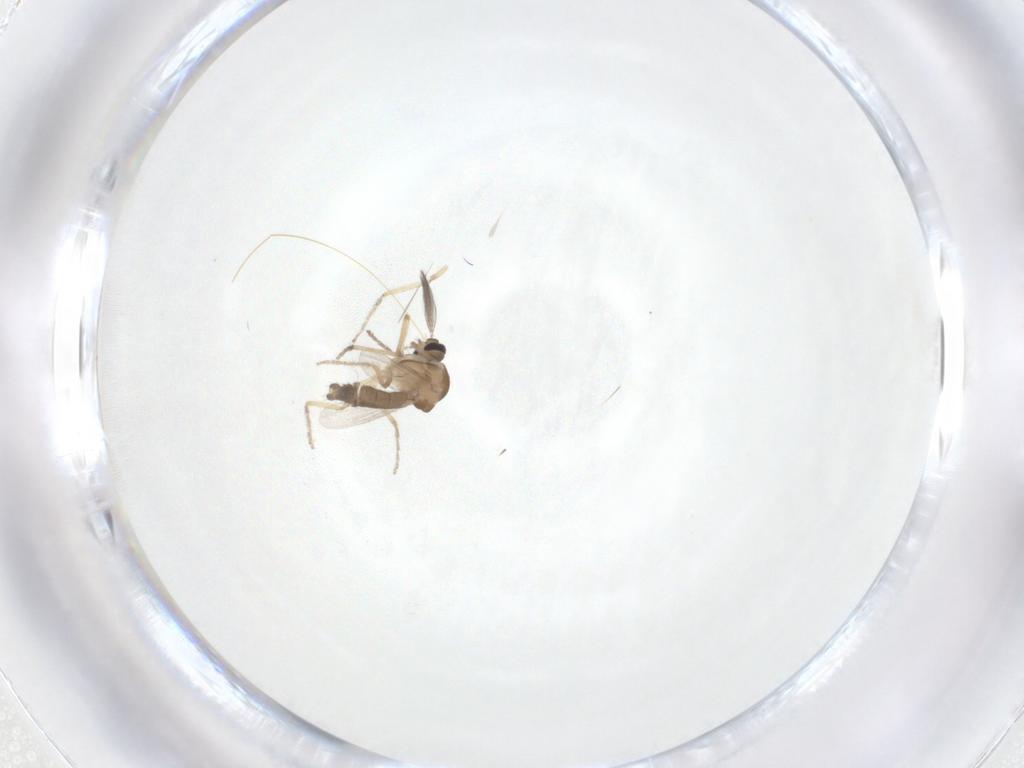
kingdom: Animalia
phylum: Arthropoda
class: Insecta
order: Diptera
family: Ceratopogonidae
